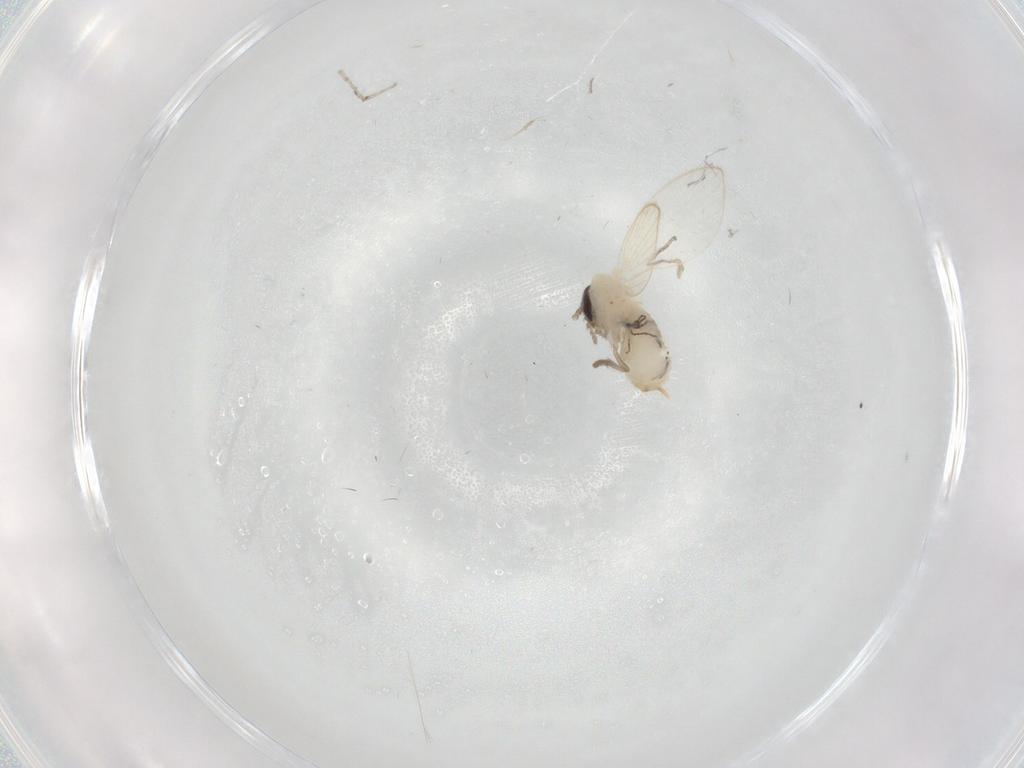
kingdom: Animalia
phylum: Arthropoda
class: Insecta
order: Diptera
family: Psychodidae
